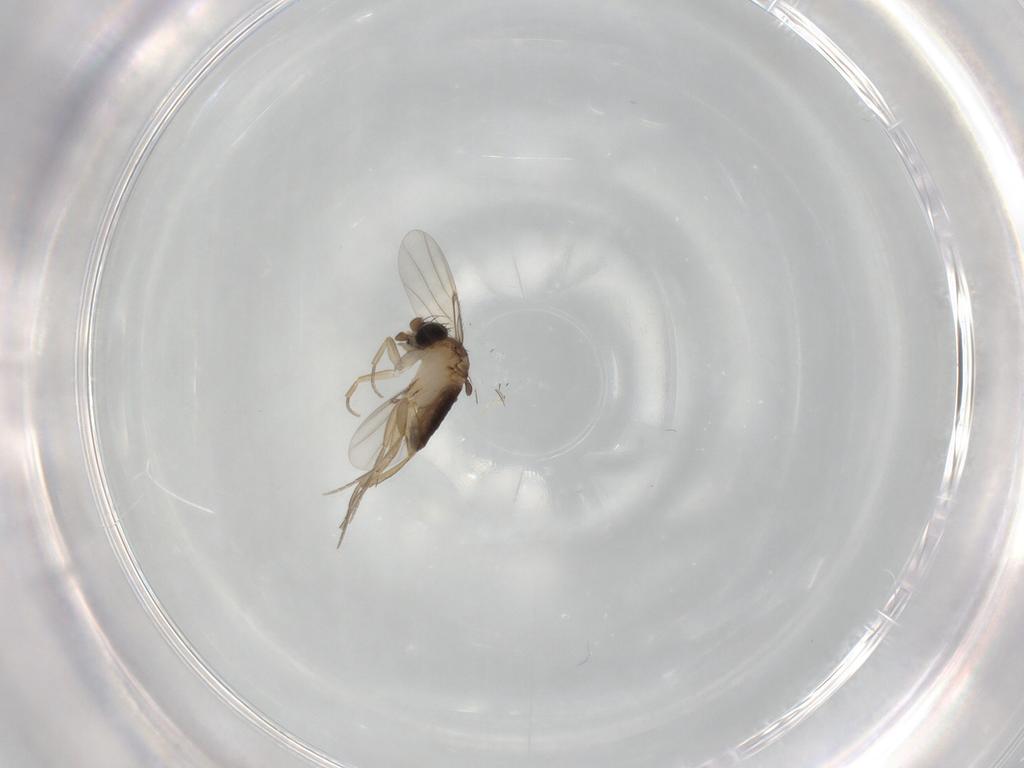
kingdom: Animalia
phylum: Arthropoda
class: Insecta
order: Diptera
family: Phoridae
